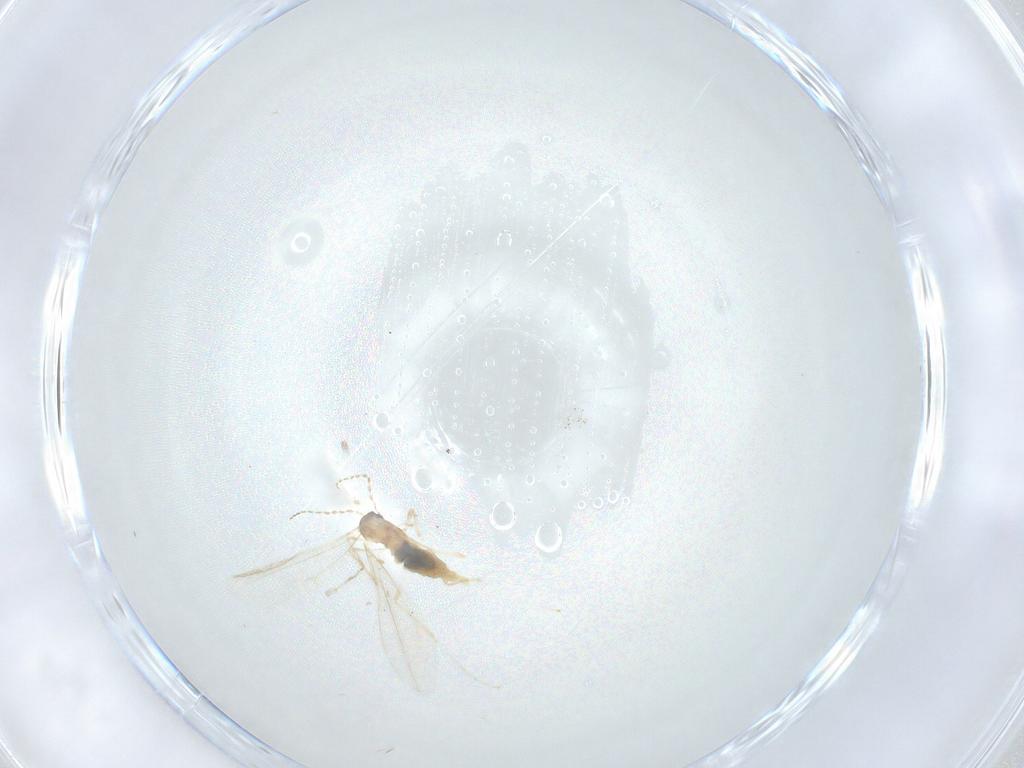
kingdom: Animalia
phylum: Arthropoda
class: Insecta
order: Diptera
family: Cecidomyiidae
